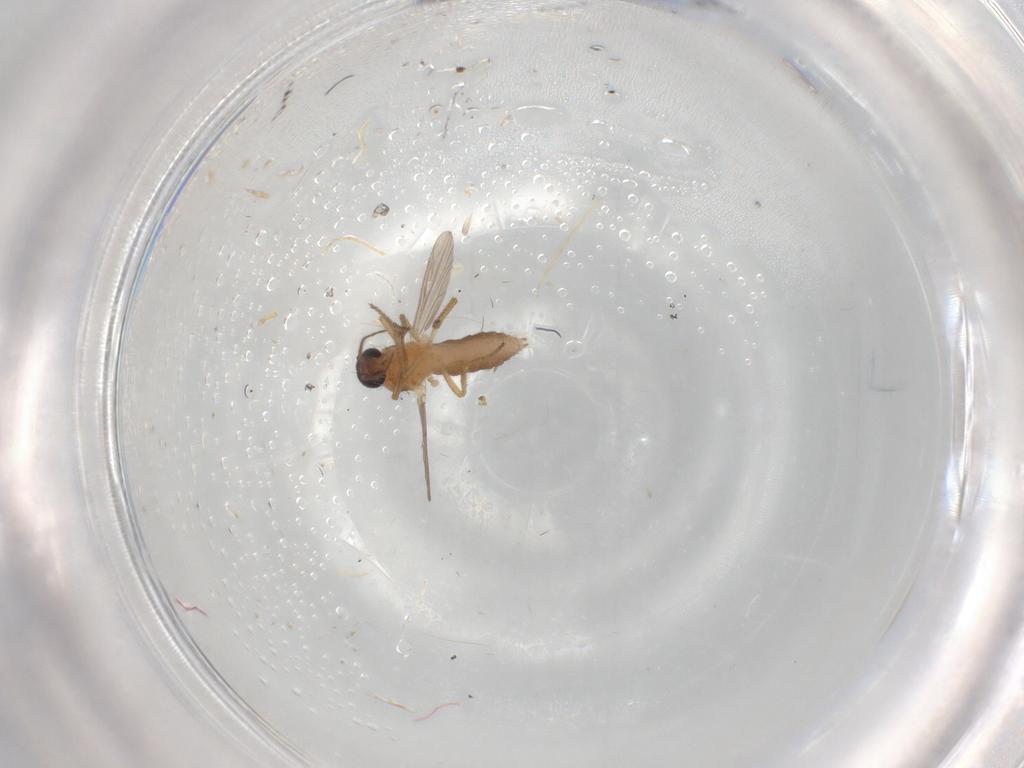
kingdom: Animalia
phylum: Arthropoda
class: Insecta
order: Diptera
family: Ceratopogonidae
